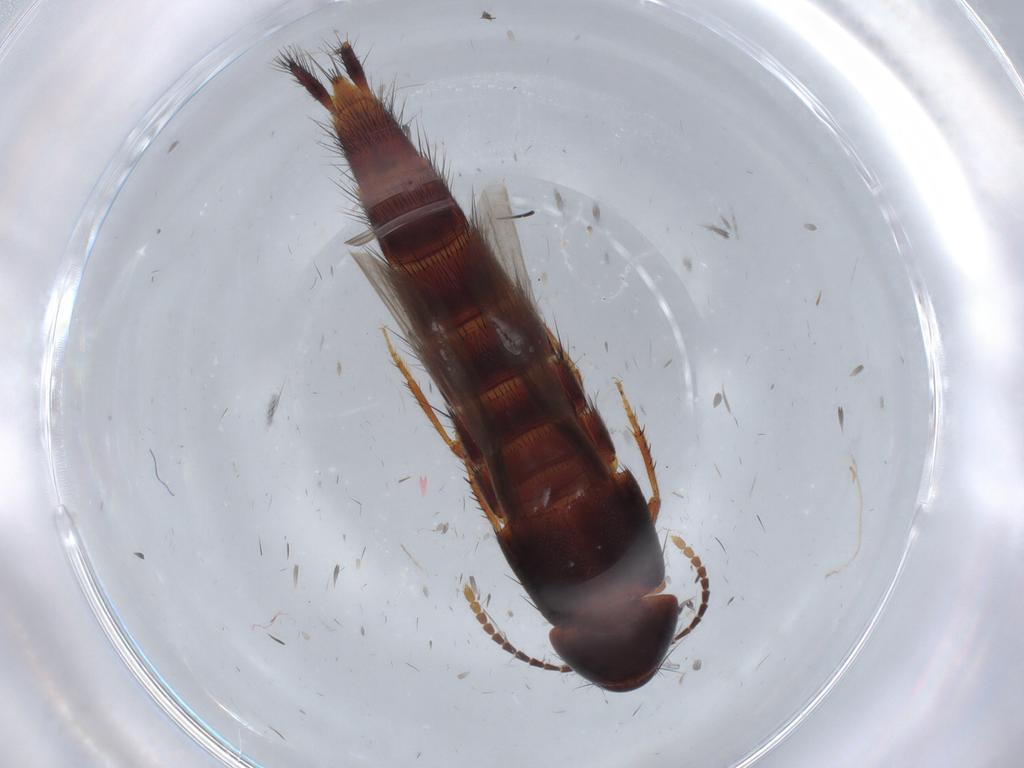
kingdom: Animalia
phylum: Arthropoda
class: Insecta
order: Coleoptera
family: Staphylinidae
